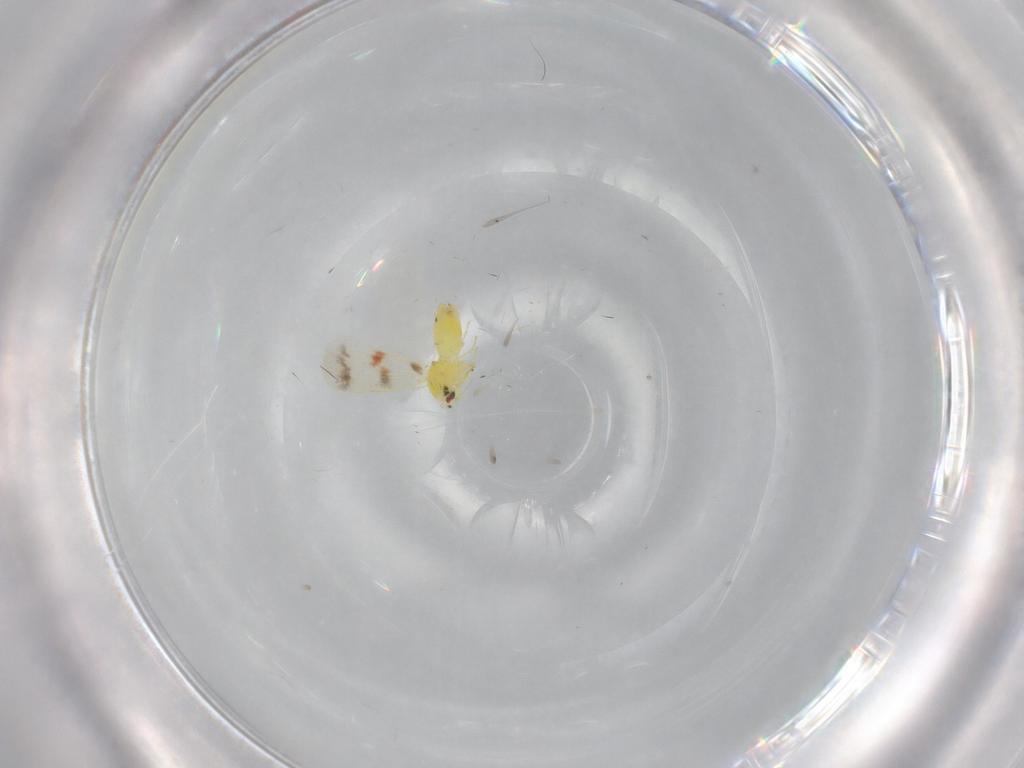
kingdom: Animalia
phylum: Arthropoda
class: Insecta
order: Hemiptera
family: Aleyrodidae
